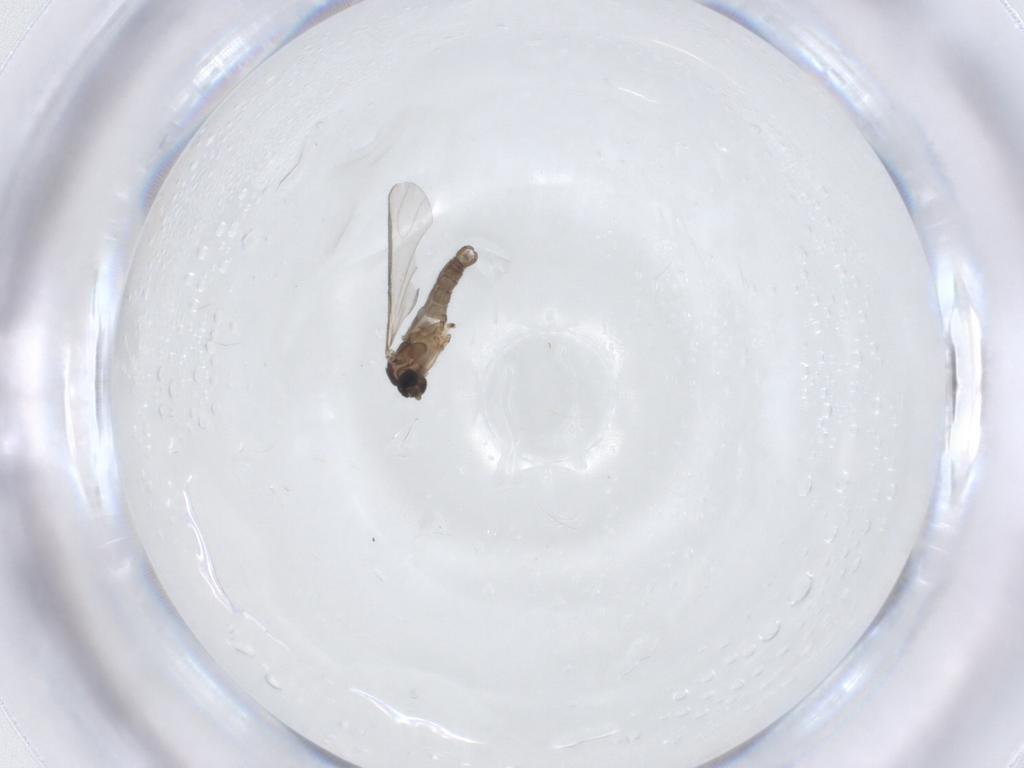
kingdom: Animalia
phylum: Arthropoda
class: Insecta
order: Diptera
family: Sciaridae
